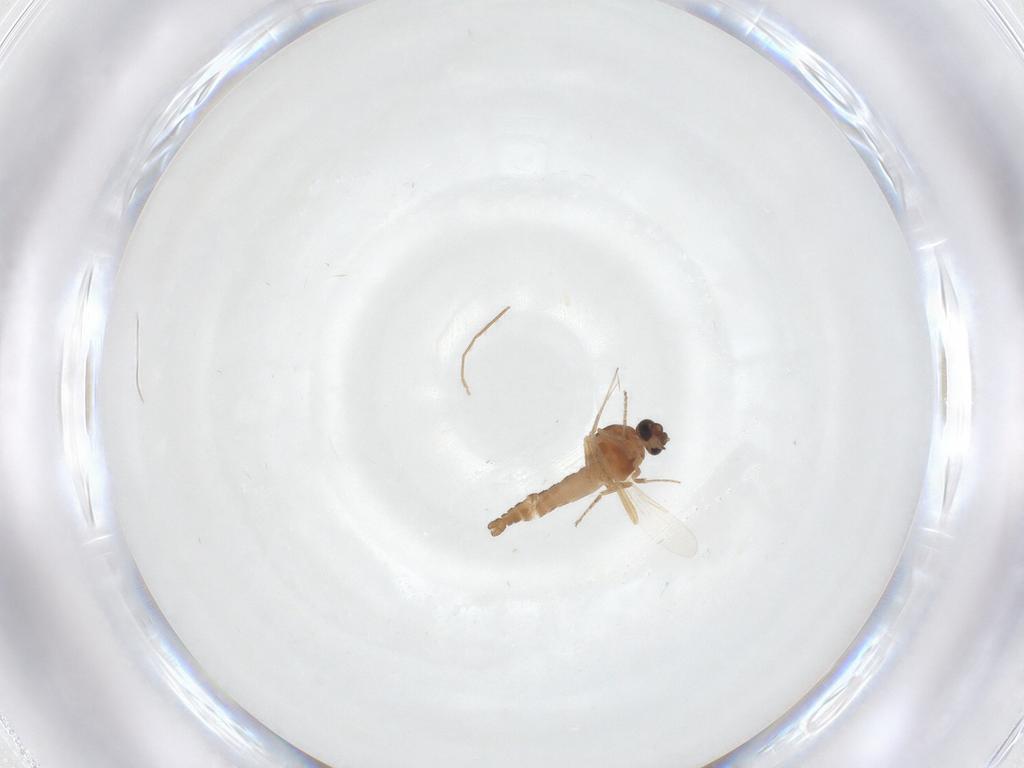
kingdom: Animalia
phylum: Arthropoda
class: Insecta
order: Diptera
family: Ceratopogonidae
